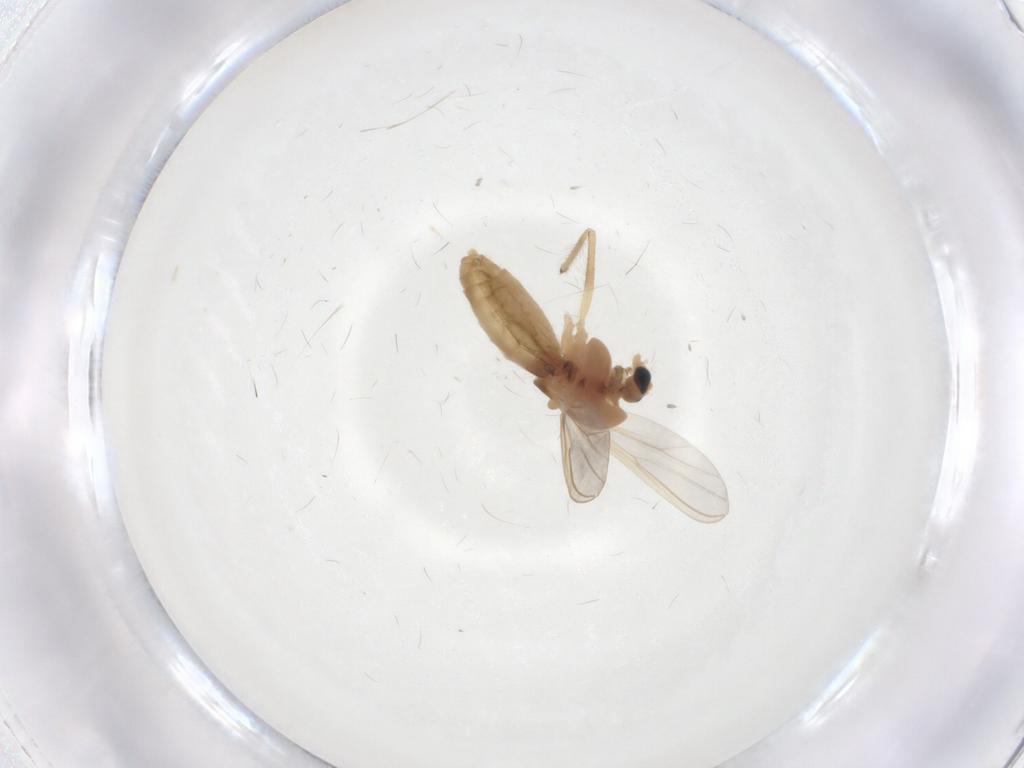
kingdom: Animalia
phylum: Arthropoda
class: Insecta
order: Diptera
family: Chironomidae
